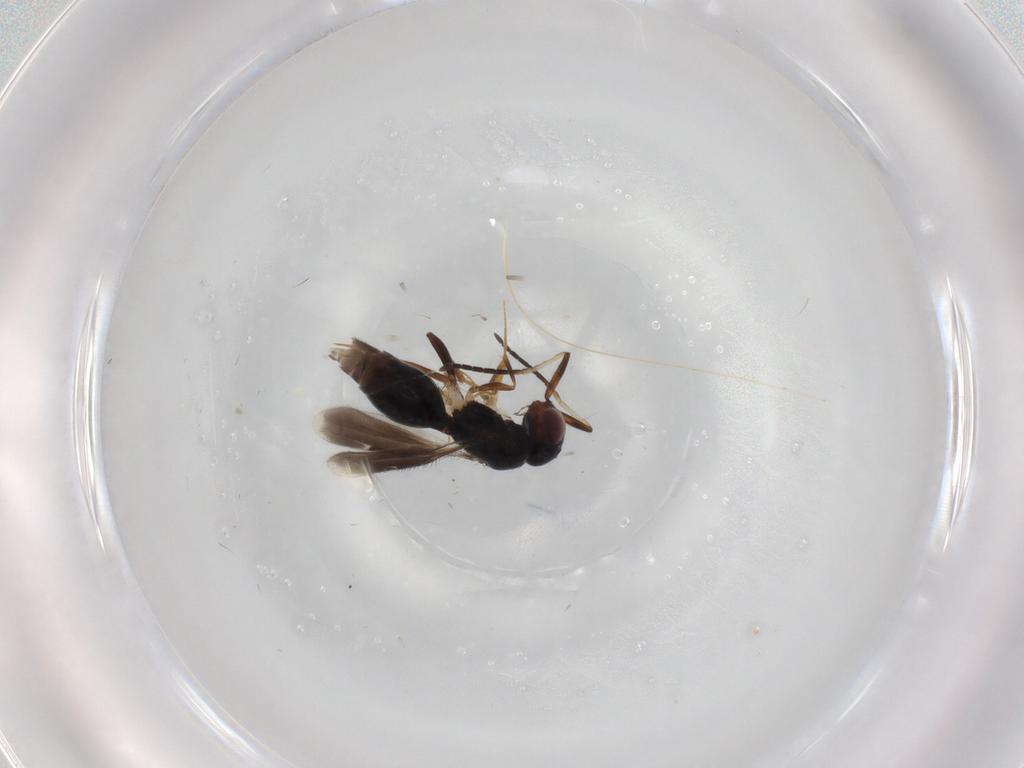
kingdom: Animalia
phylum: Arthropoda
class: Insecta
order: Hymenoptera
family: Megaspilidae
